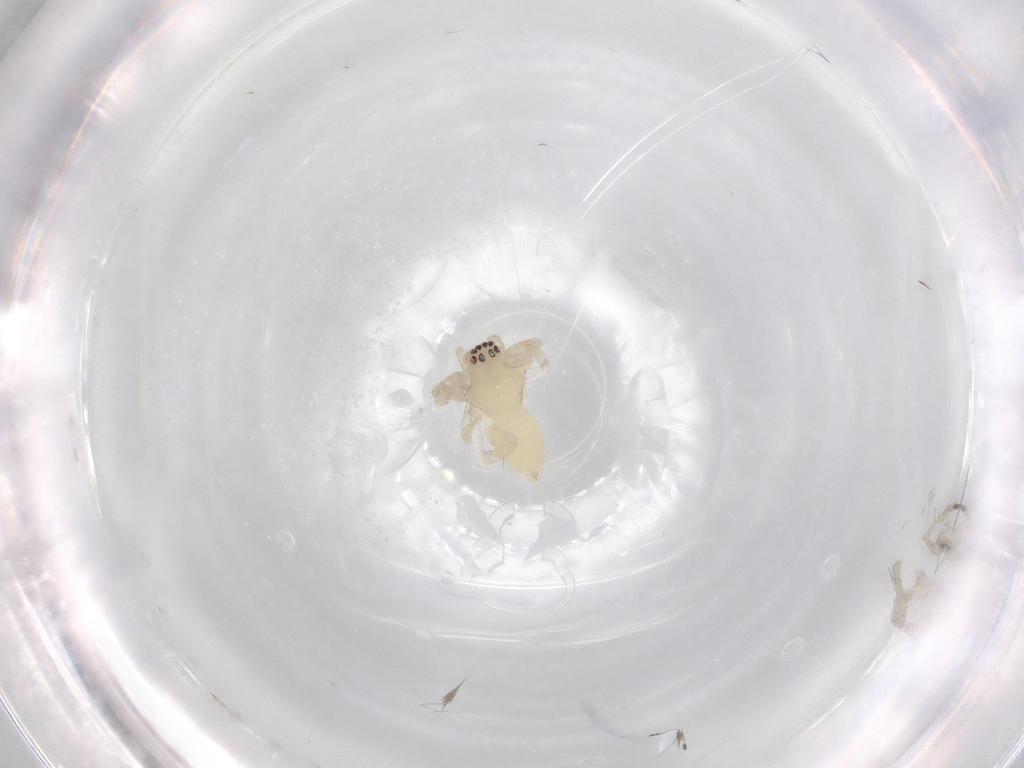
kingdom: Animalia
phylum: Arthropoda
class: Arachnida
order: Araneae
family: Anyphaenidae
